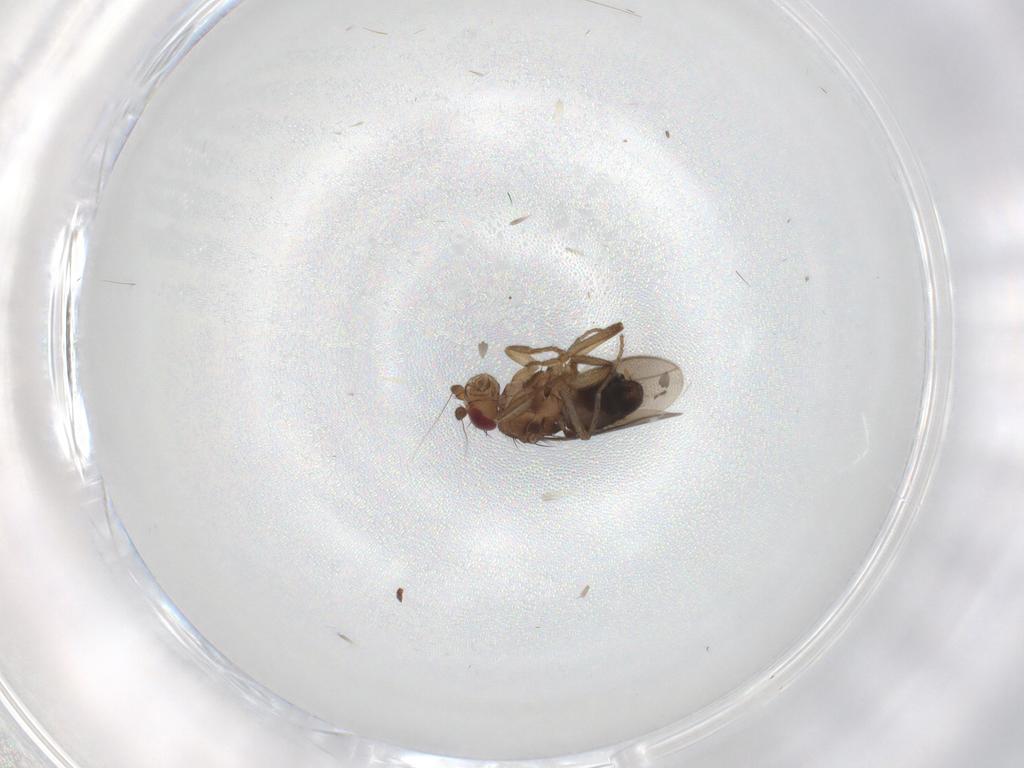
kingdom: Animalia
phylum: Arthropoda
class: Insecta
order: Diptera
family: Sphaeroceridae
